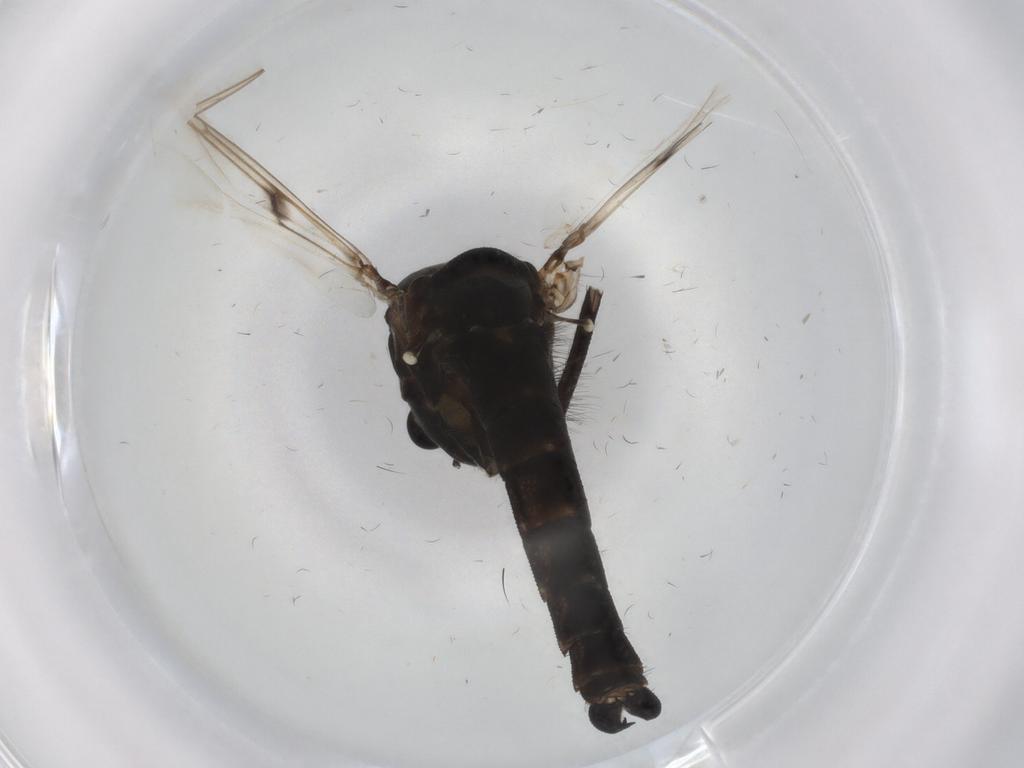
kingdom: Animalia
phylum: Arthropoda
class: Insecta
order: Diptera
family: Chironomidae
